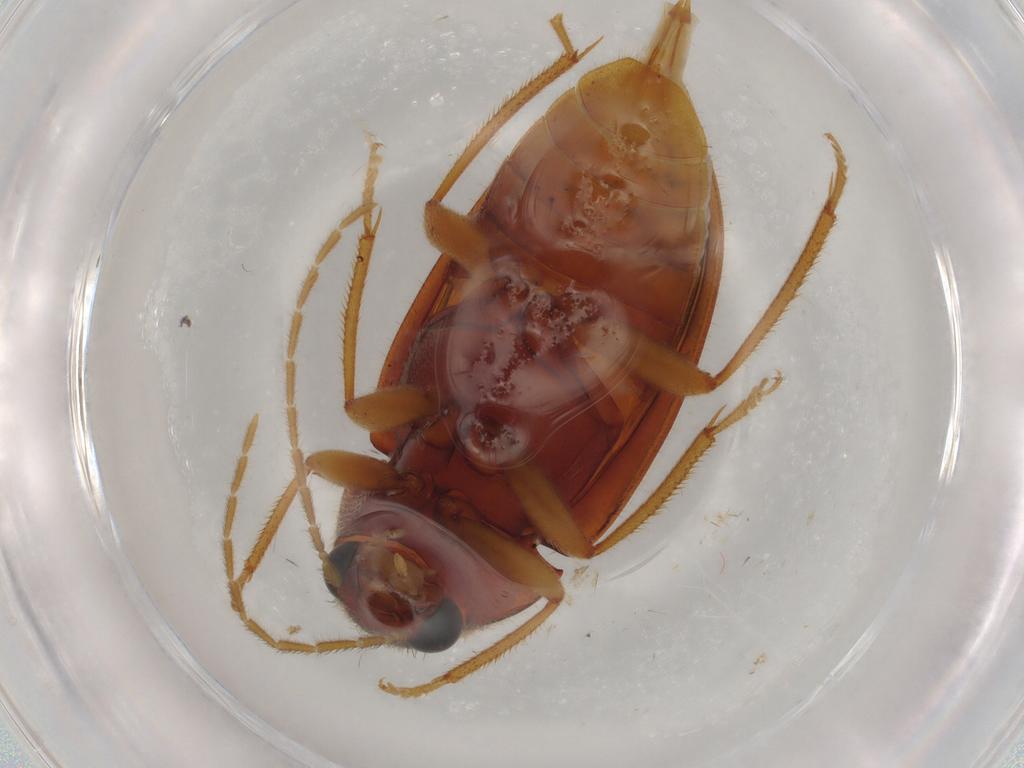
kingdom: Animalia
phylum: Arthropoda
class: Insecta
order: Coleoptera
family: Ptilodactylidae
